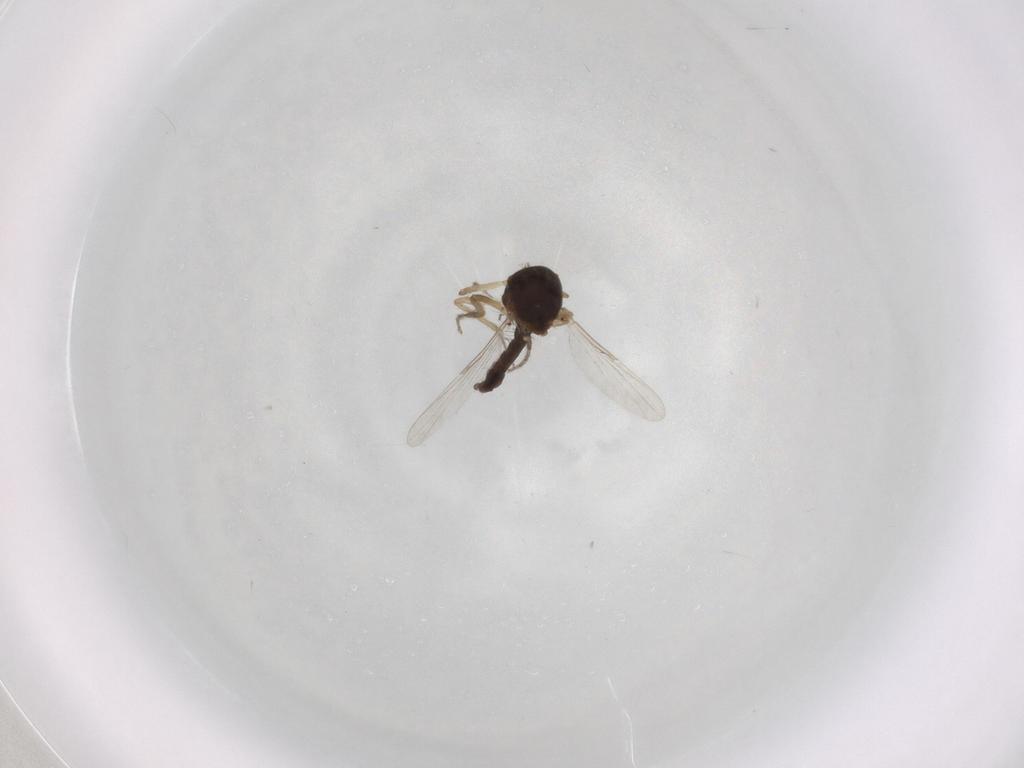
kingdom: Animalia
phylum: Arthropoda
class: Insecta
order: Diptera
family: Ceratopogonidae
